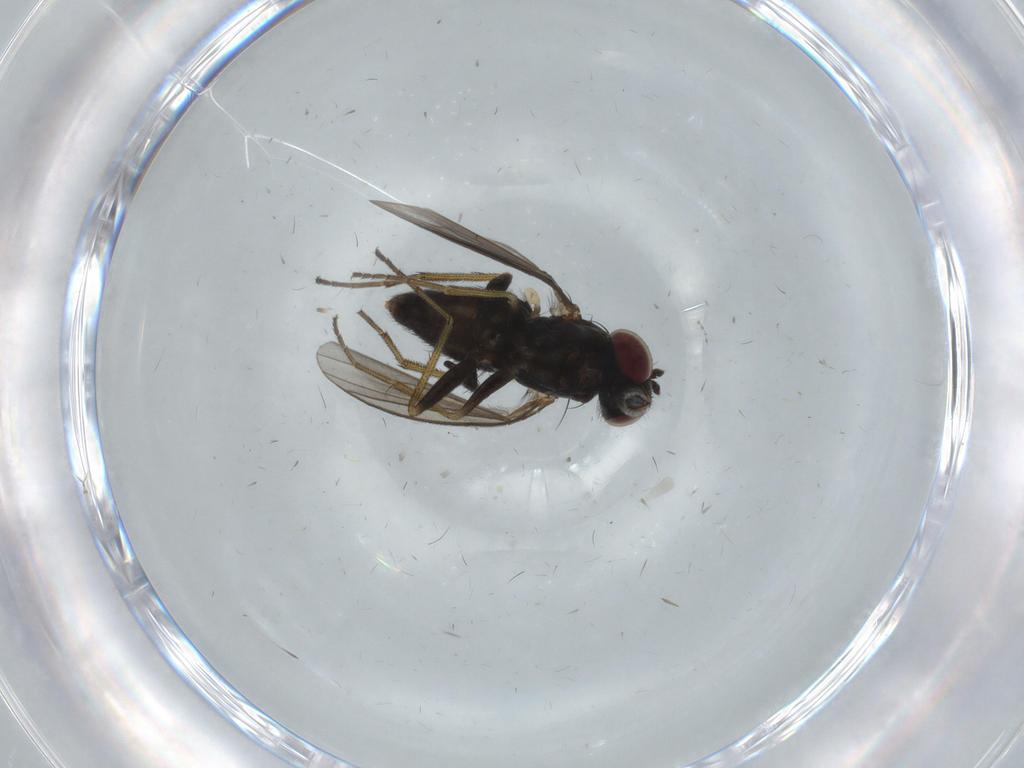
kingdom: Animalia
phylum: Arthropoda
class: Insecta
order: Diptera
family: Dolichopodidae
